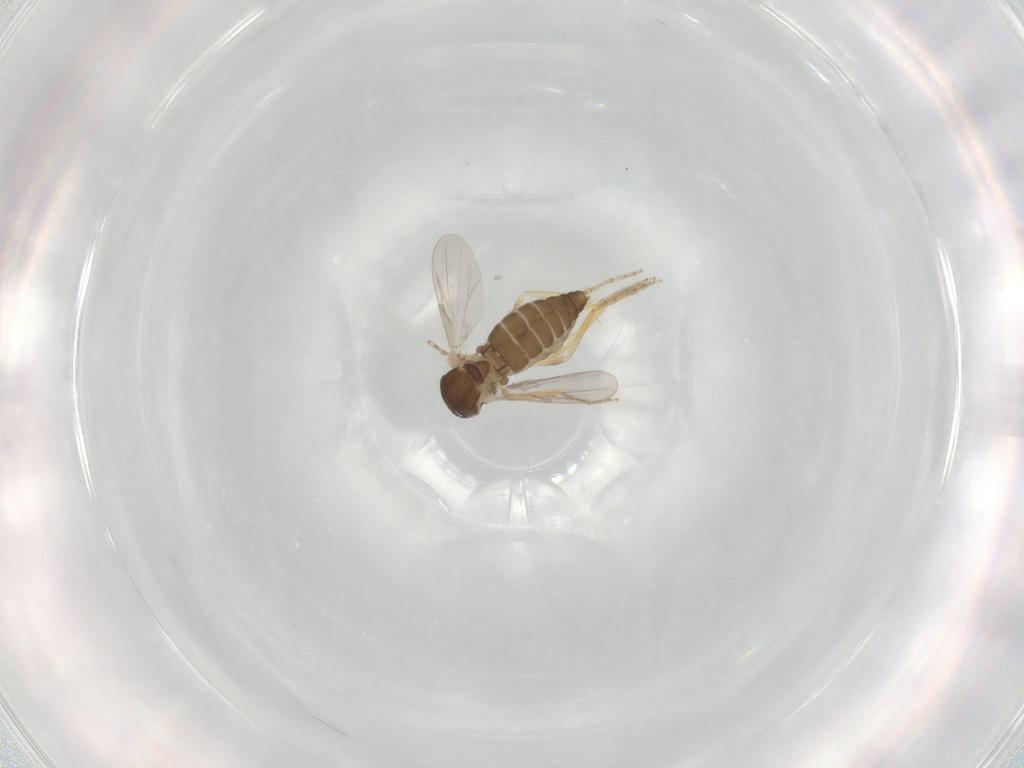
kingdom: Animalia
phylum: Arthropoda
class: Insecta
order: Diptera
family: Ceratopogonidae
